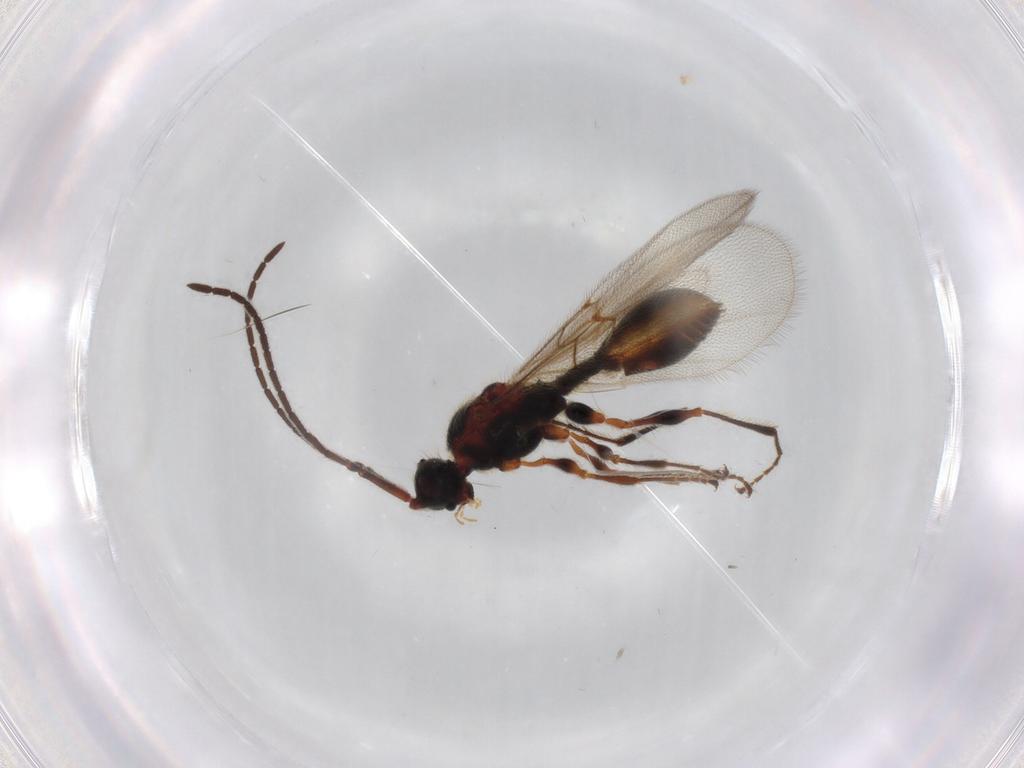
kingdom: Animalia
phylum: Arthropoda
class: Insecta
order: Hymenoptera
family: Diapriidae
